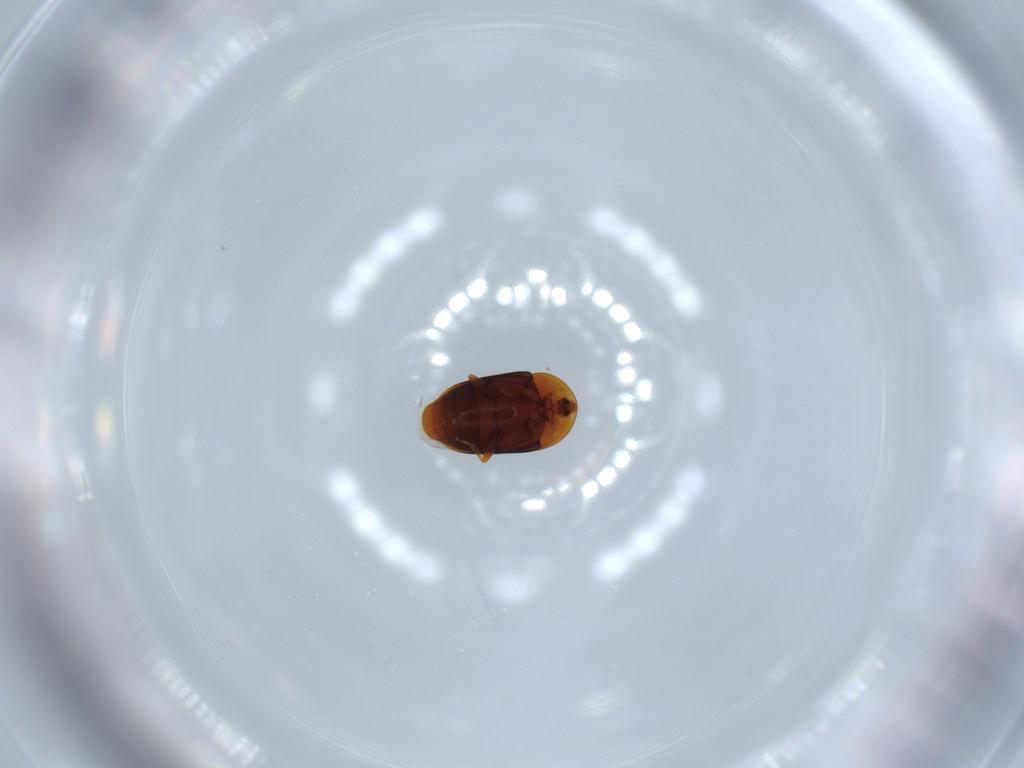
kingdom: Animalia
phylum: Arthropoda
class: Insecta
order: Coleoptera
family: Corylophidae
